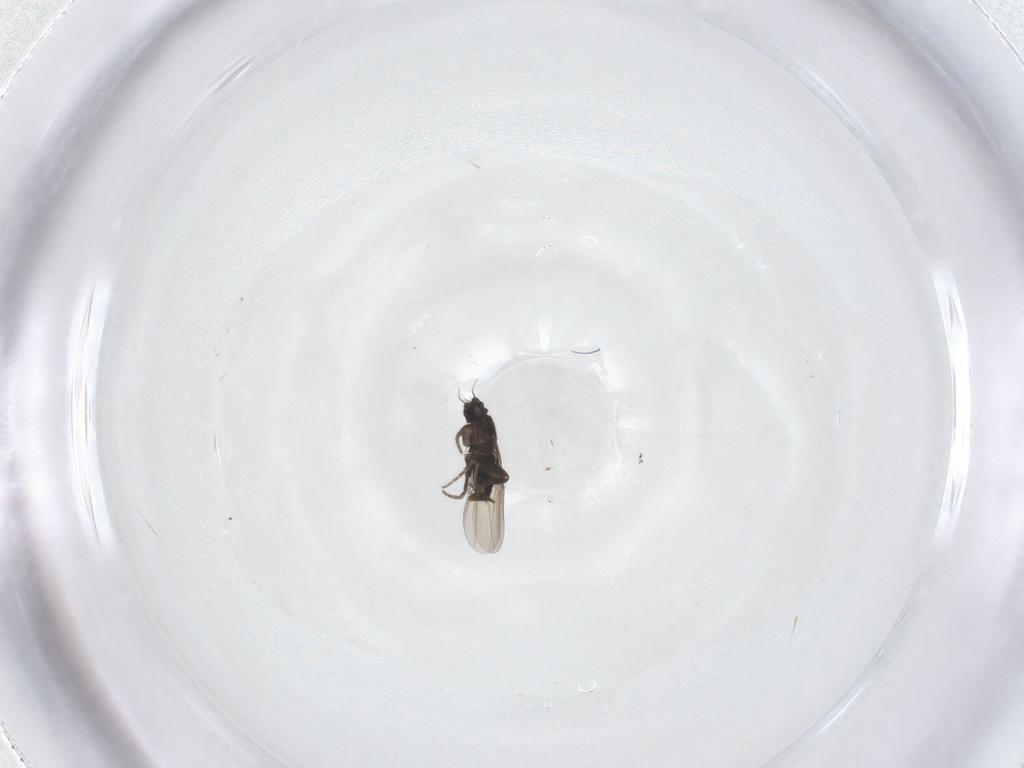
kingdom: Animalia
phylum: Arthropoda
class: Insecta
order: Diptera
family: Phoridae
